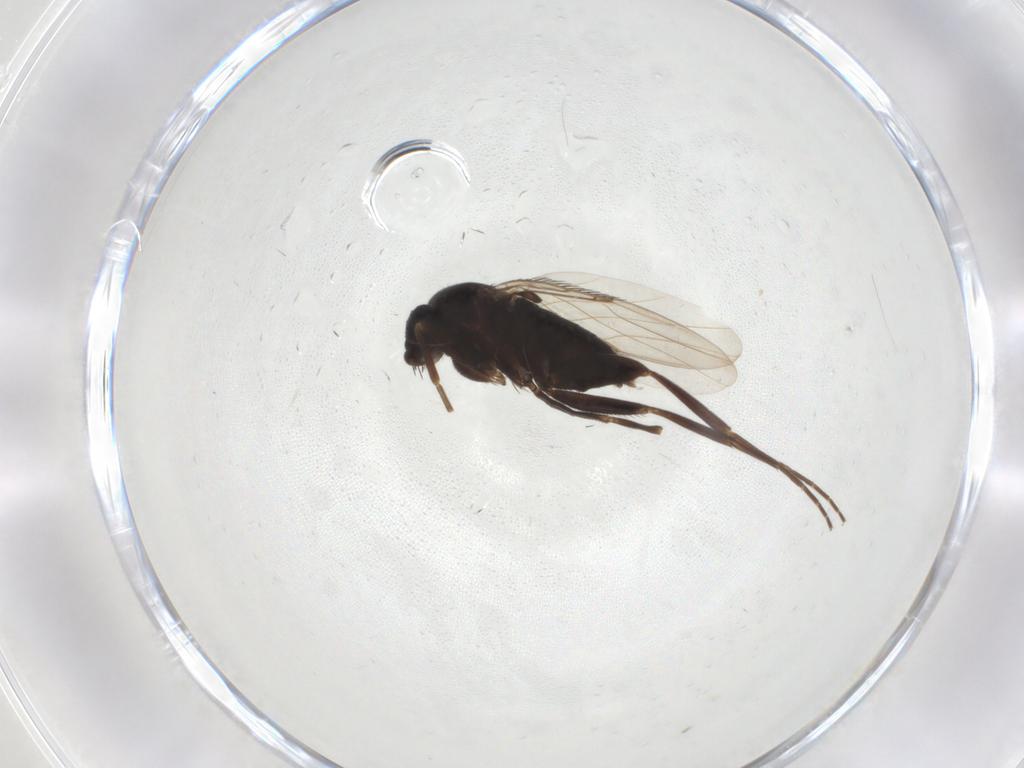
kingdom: Animalia
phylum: Arthropoda
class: Insecta
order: Diptera
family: Phoridae
